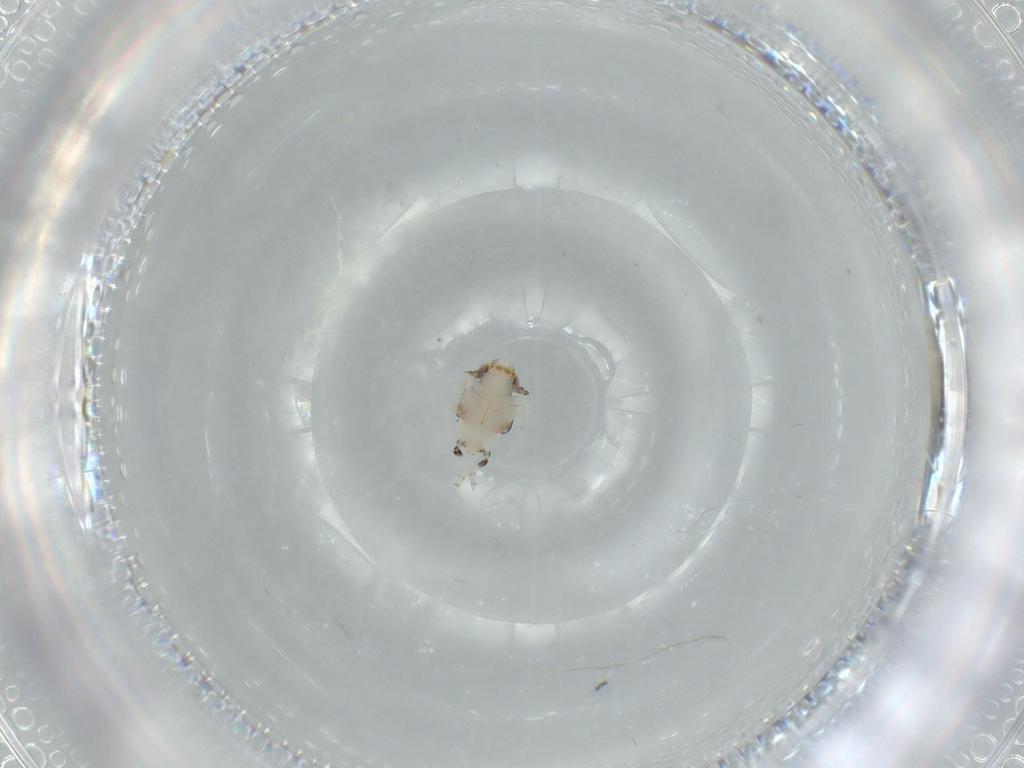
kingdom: Animalia
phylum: Arthropoda
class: Insecta
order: Hemiptera
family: Nogodinidae
